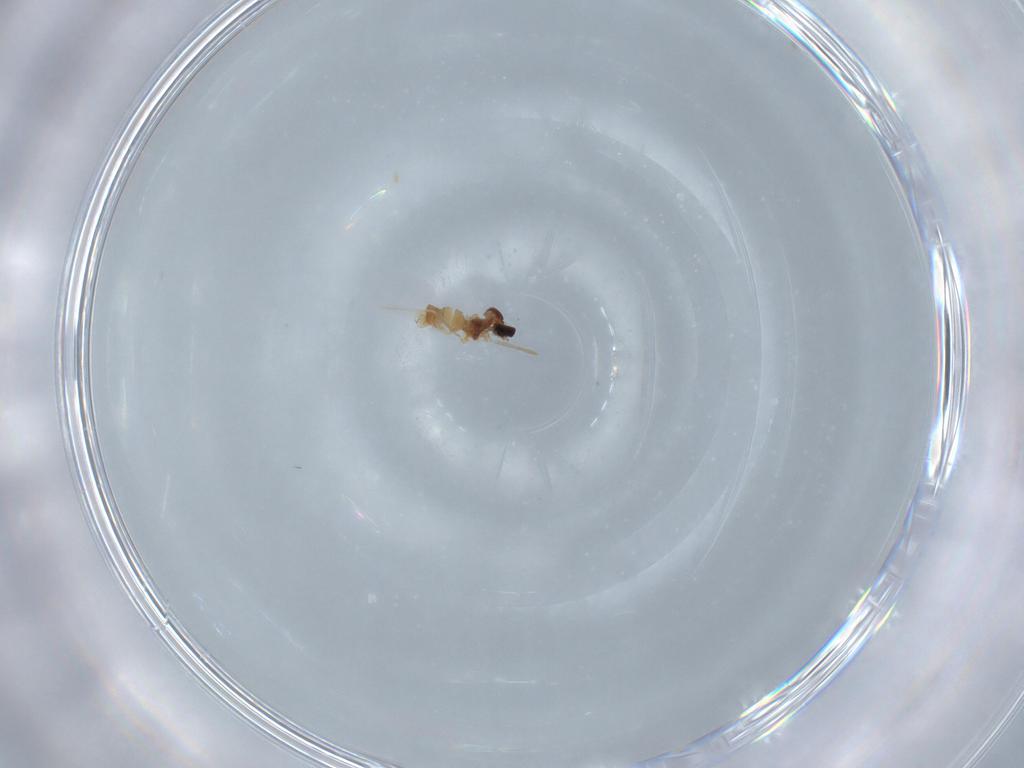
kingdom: Animalia
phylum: Arthropoda
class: Insecta
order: Diptera
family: Cecidomyiidae
